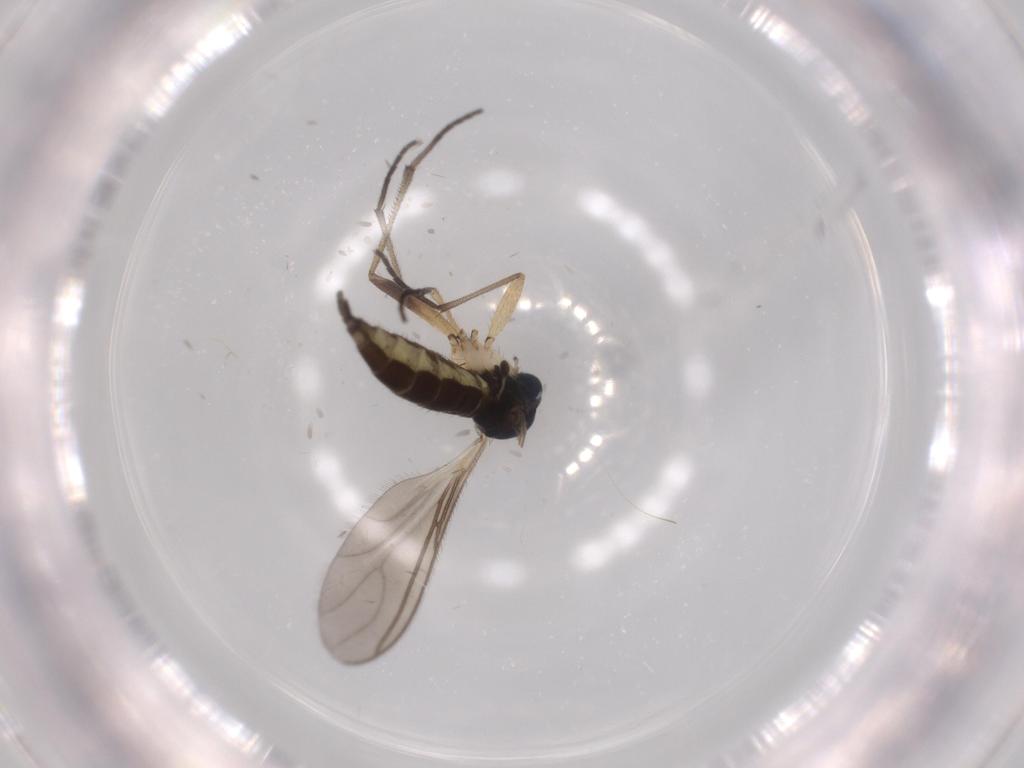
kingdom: Animalia
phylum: Arthropoda
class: Insecta
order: Diptera
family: Sciaridae
